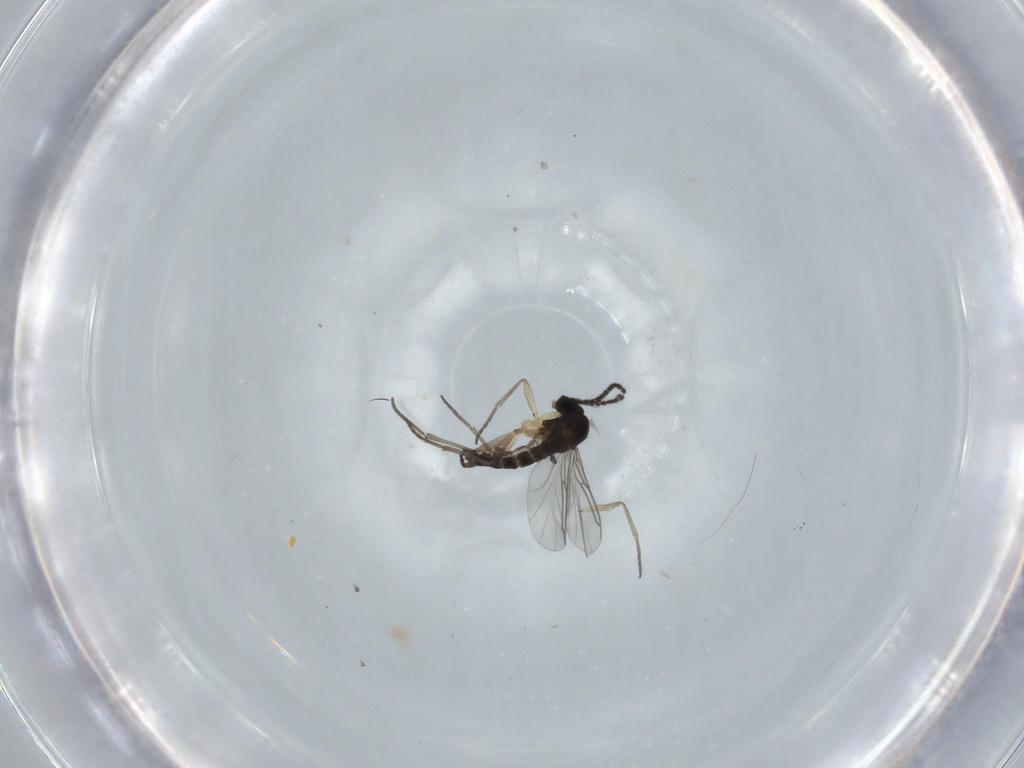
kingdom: Animalia
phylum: Arthropoda
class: Insecta
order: Diptera
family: Sciaridae
